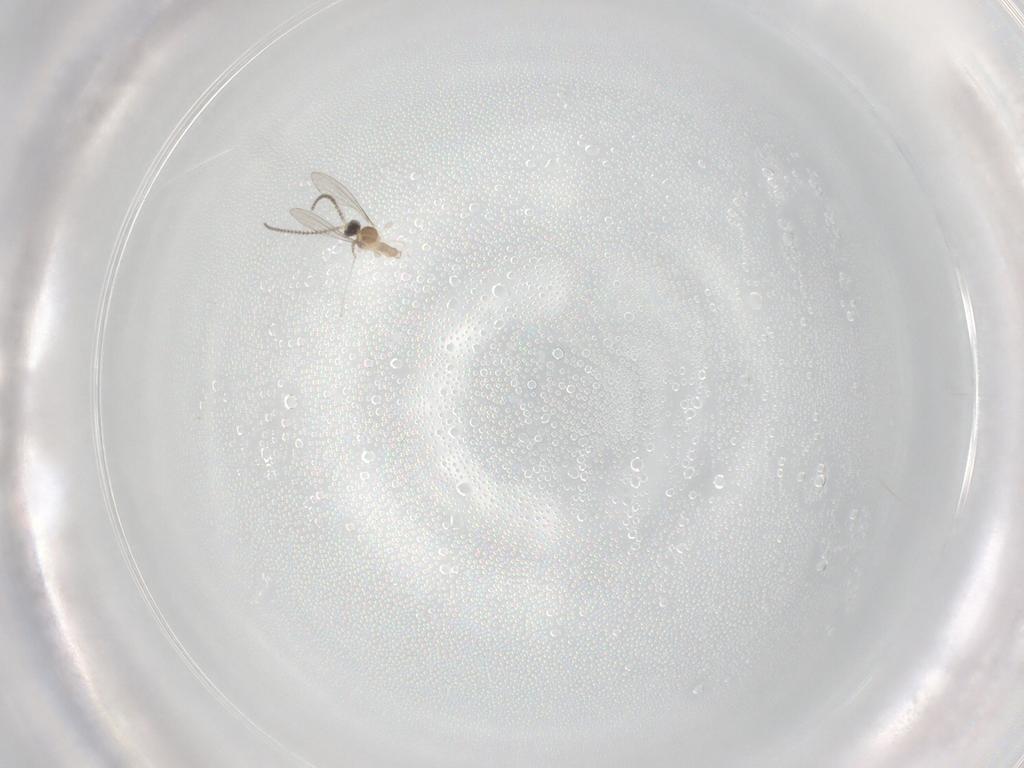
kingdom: Animalia
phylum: Arthropoda
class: Insecta
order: Diptera
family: Cecidomyiidae
